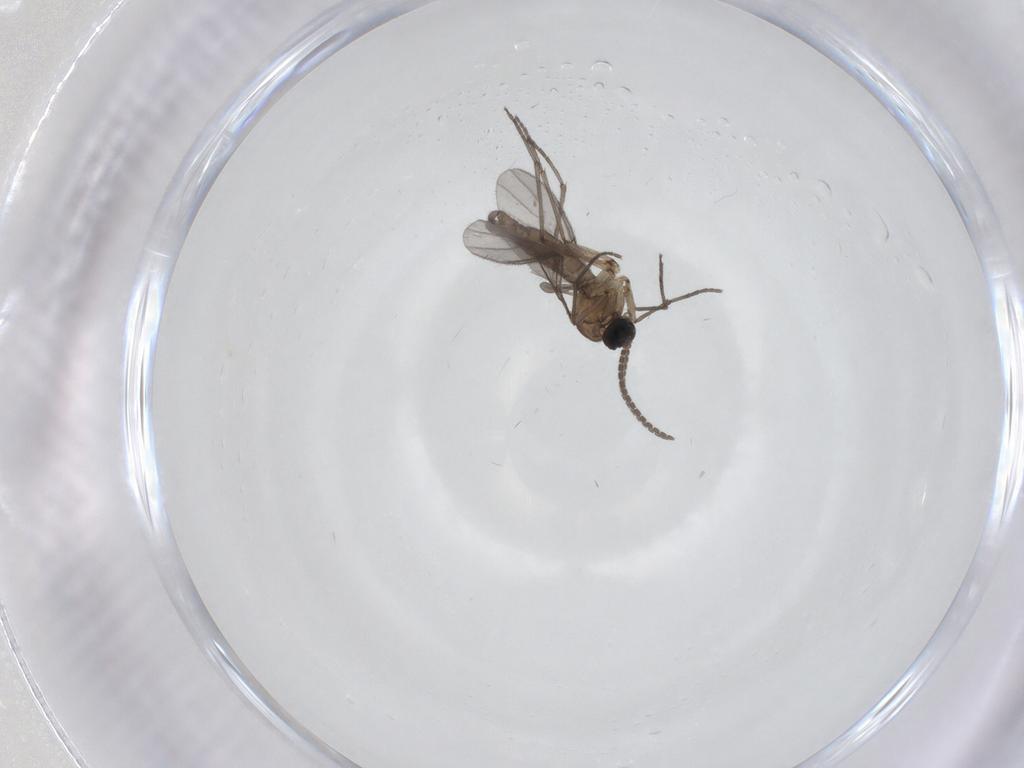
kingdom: Animalia
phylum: Arthropoda
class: Insecta
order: Diptera
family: Sciaridae
